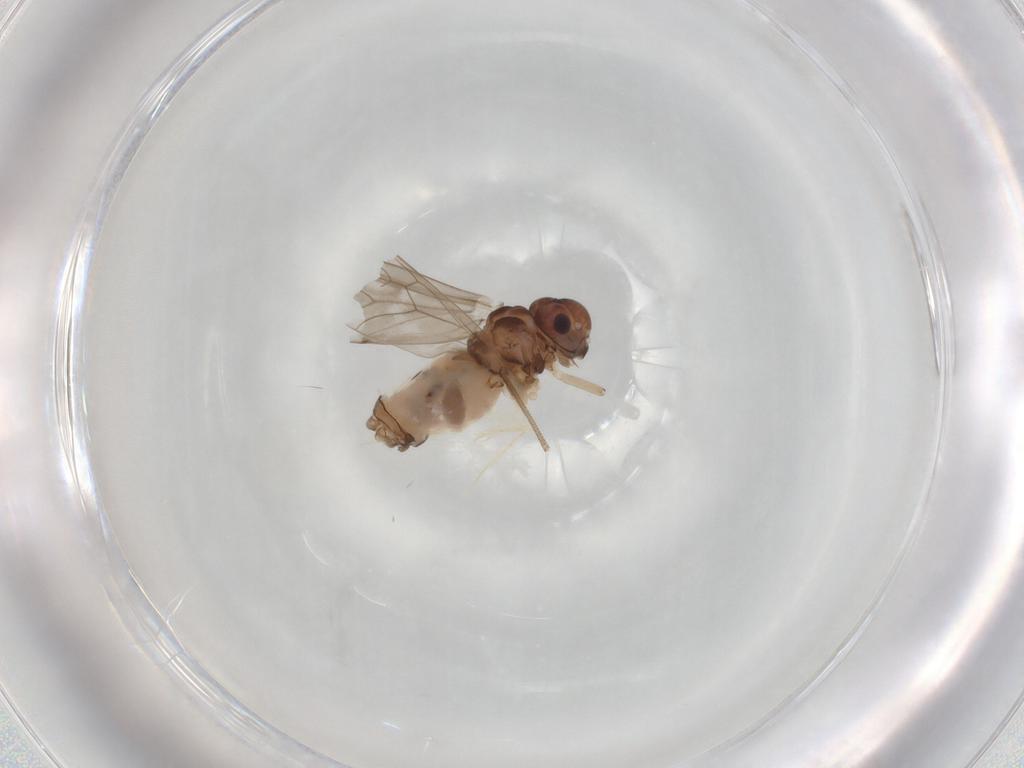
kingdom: Animalia
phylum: Arthropoda
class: Insecta
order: Psocodea
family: Peripsocidae
